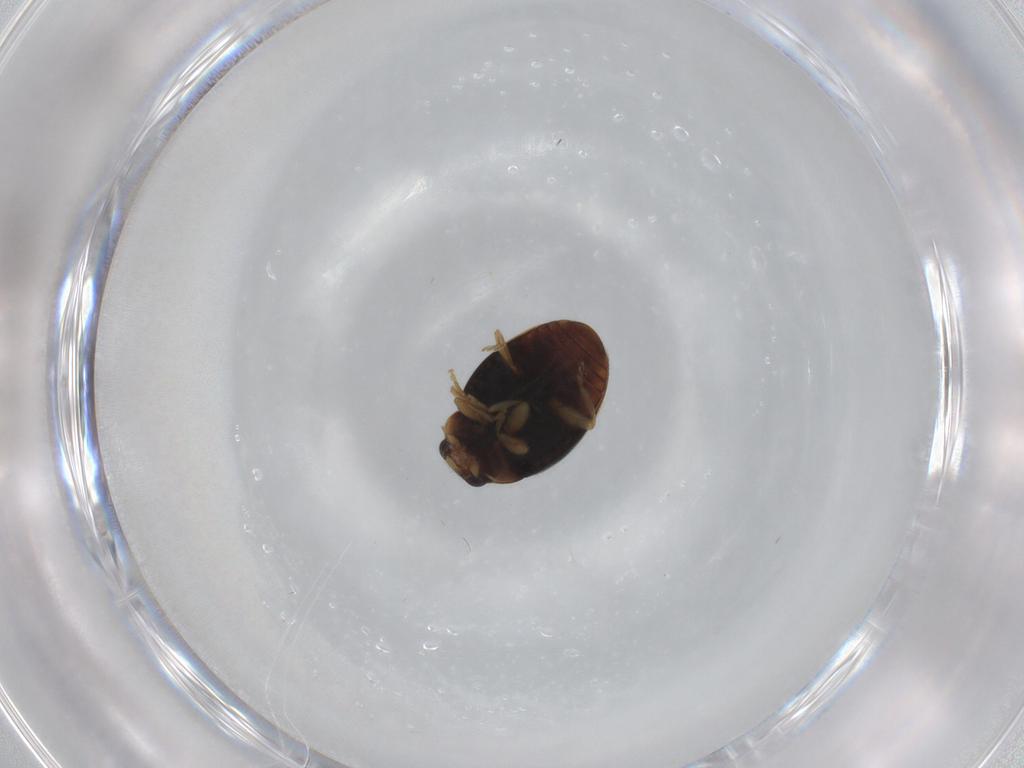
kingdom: Animalia
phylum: Arthropoda
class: Insecta
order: Coleoptera
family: Coccinellidae
